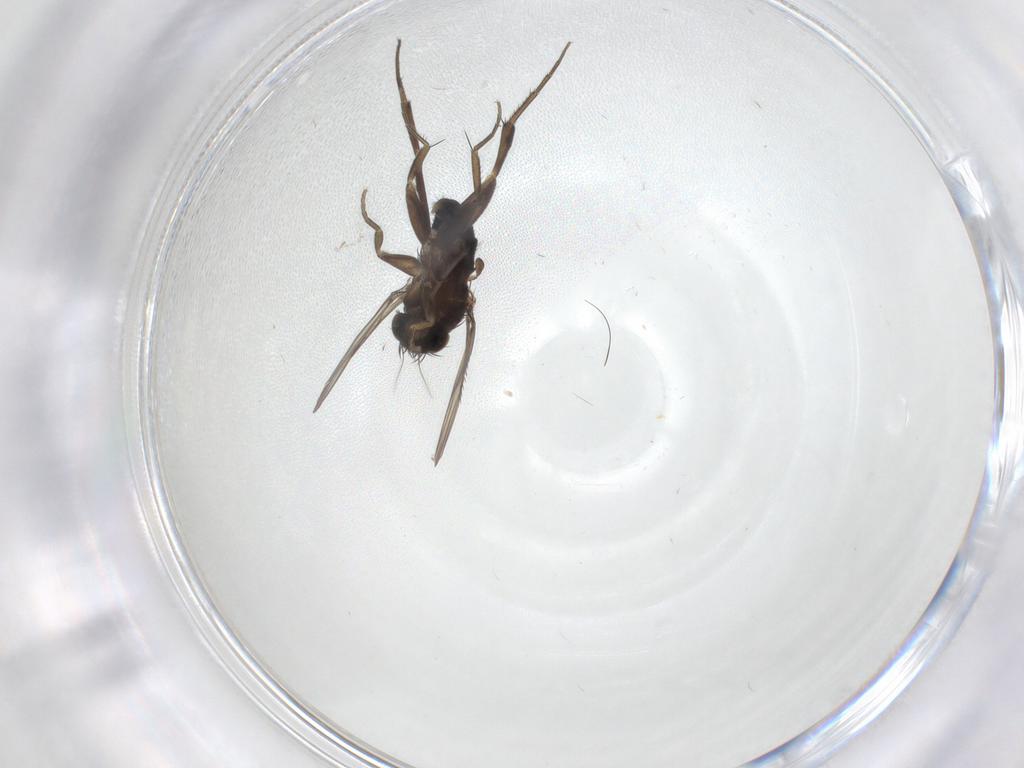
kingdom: Animalia
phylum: Arthropoda
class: Insecta
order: Diptera
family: Phoridae
